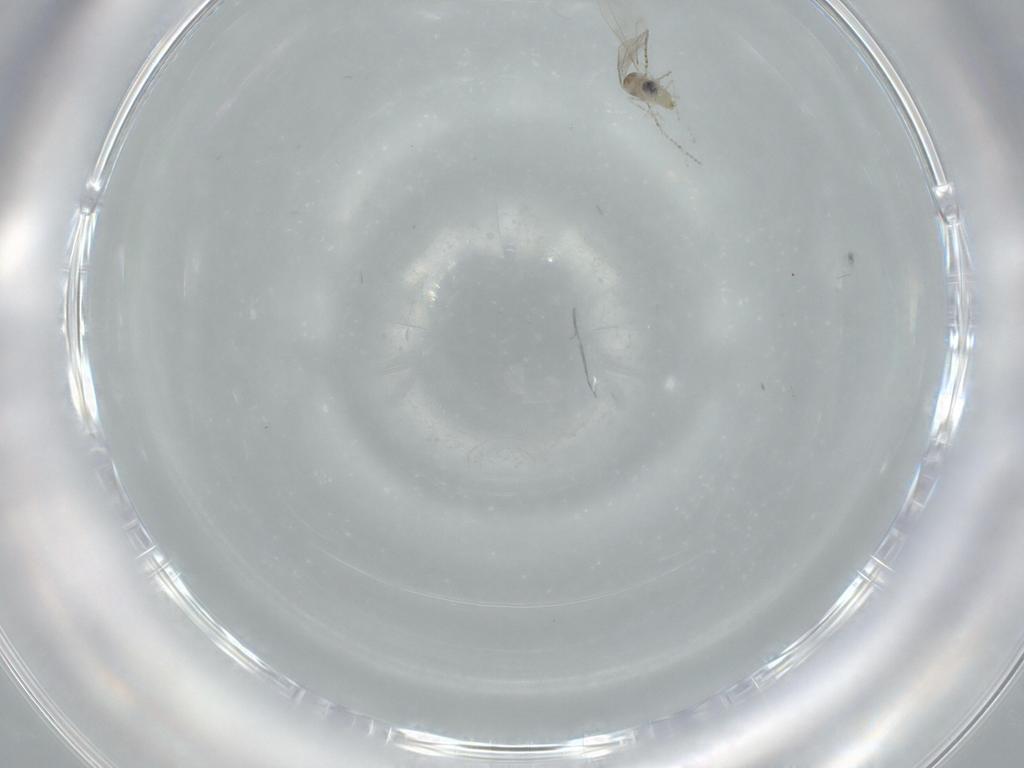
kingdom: Animalia
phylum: Arthropoda
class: Insecta
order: Diptera
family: Cecidomyiidae
